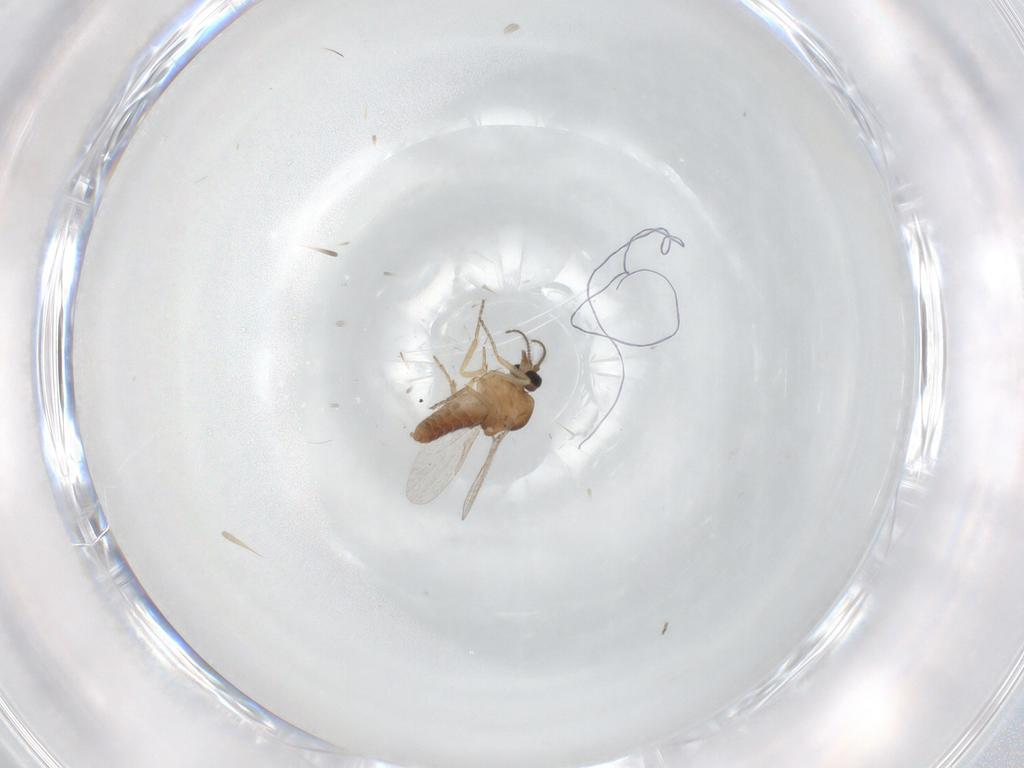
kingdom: Animalia
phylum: Arthropoda
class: Insecta
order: Diptera
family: Ceratopogonidae
